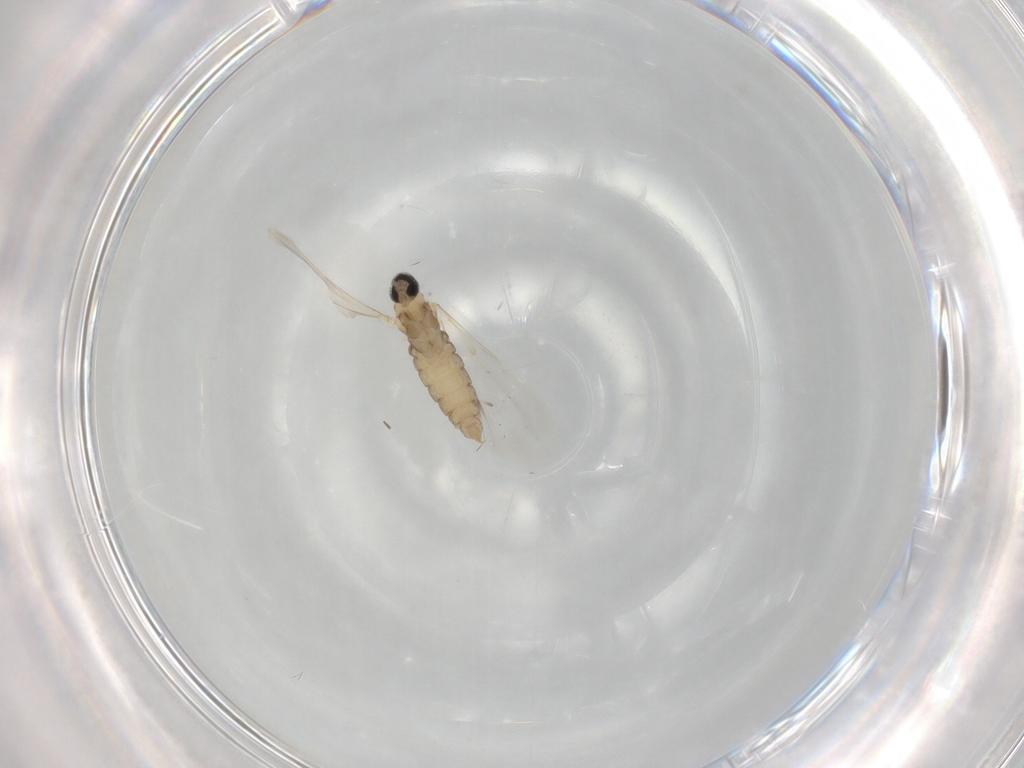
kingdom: Animalia
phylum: Arthropoda
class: Insecta
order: Diptera
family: Cecidomyiidae
